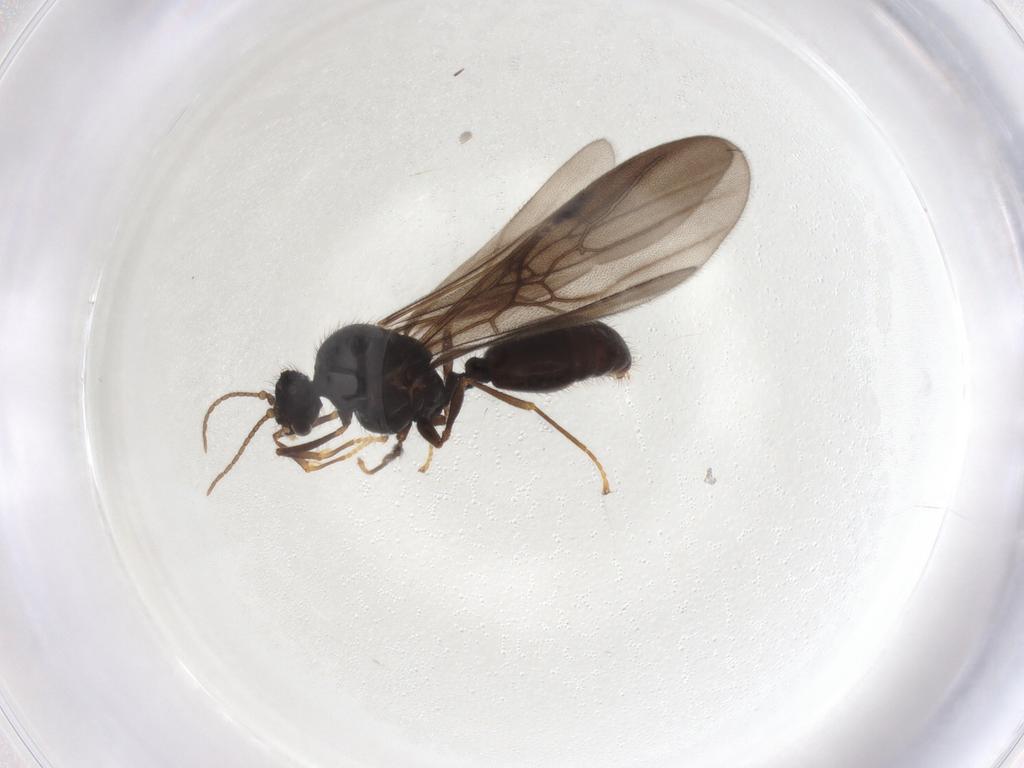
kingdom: Animalia
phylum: Arthropoda
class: Insecta
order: Hymenoptera
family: Formicidae
